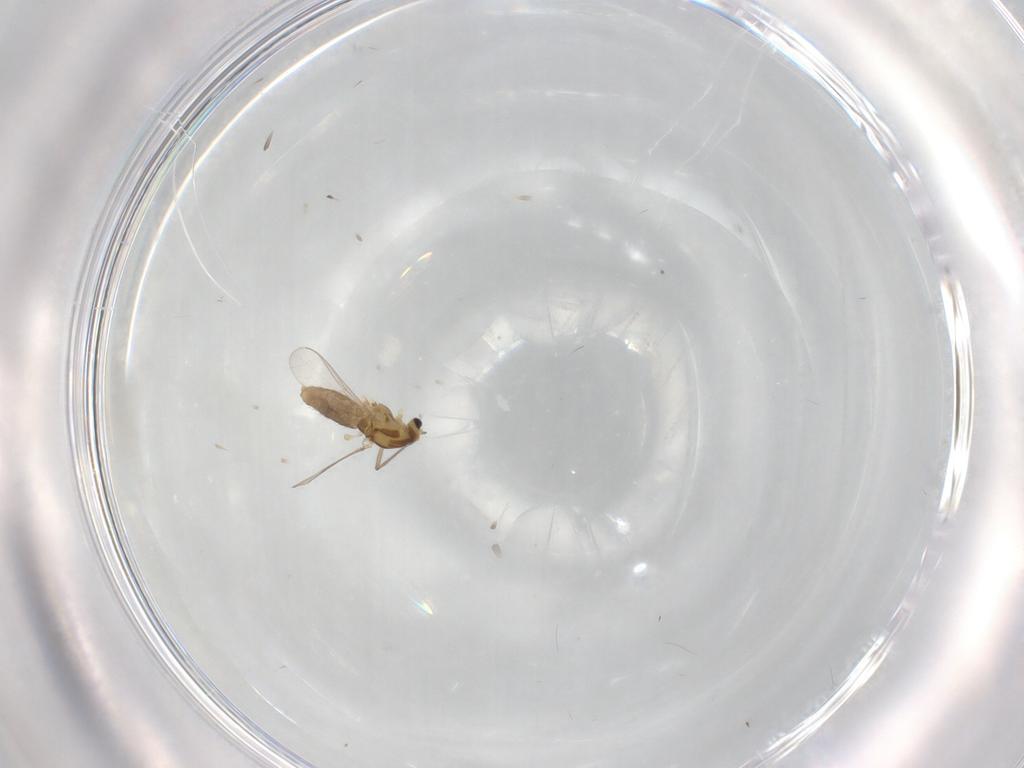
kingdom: Animalia
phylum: Arthropoda
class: Insecta
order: Diptera
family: Chironomidae
